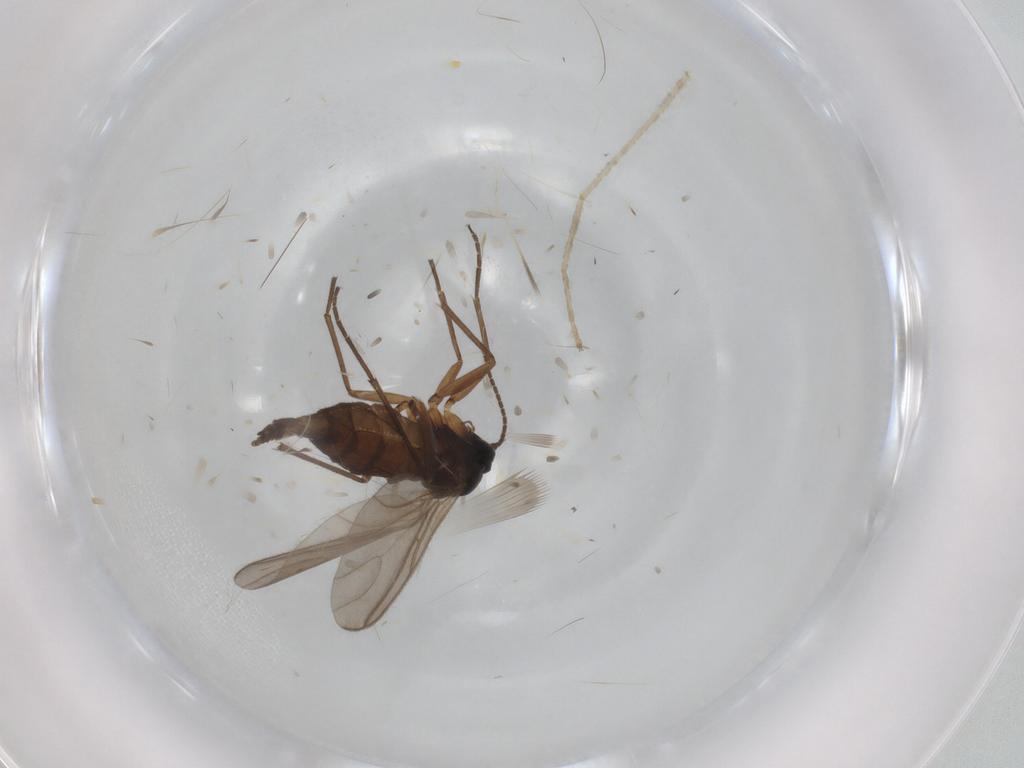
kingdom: Animalia
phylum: Arthropoda
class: Insecta
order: Diptera
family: Sciaridae
